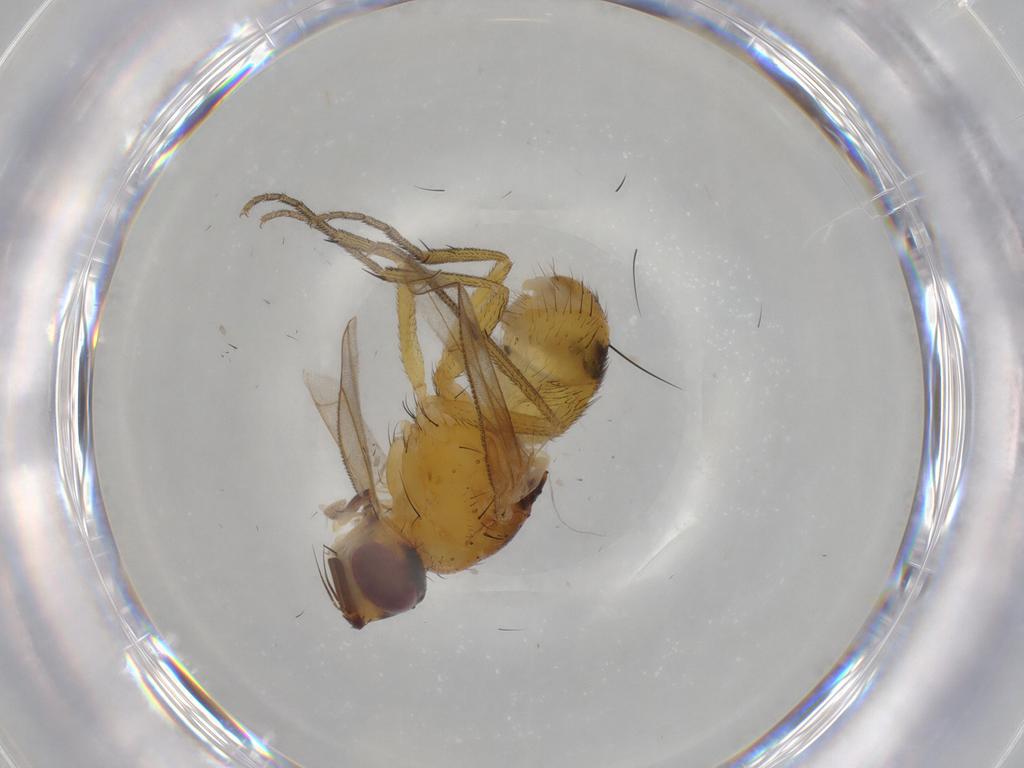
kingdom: Animalia
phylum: Arthropoda
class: Insecta
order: Diptera
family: Muscidae
